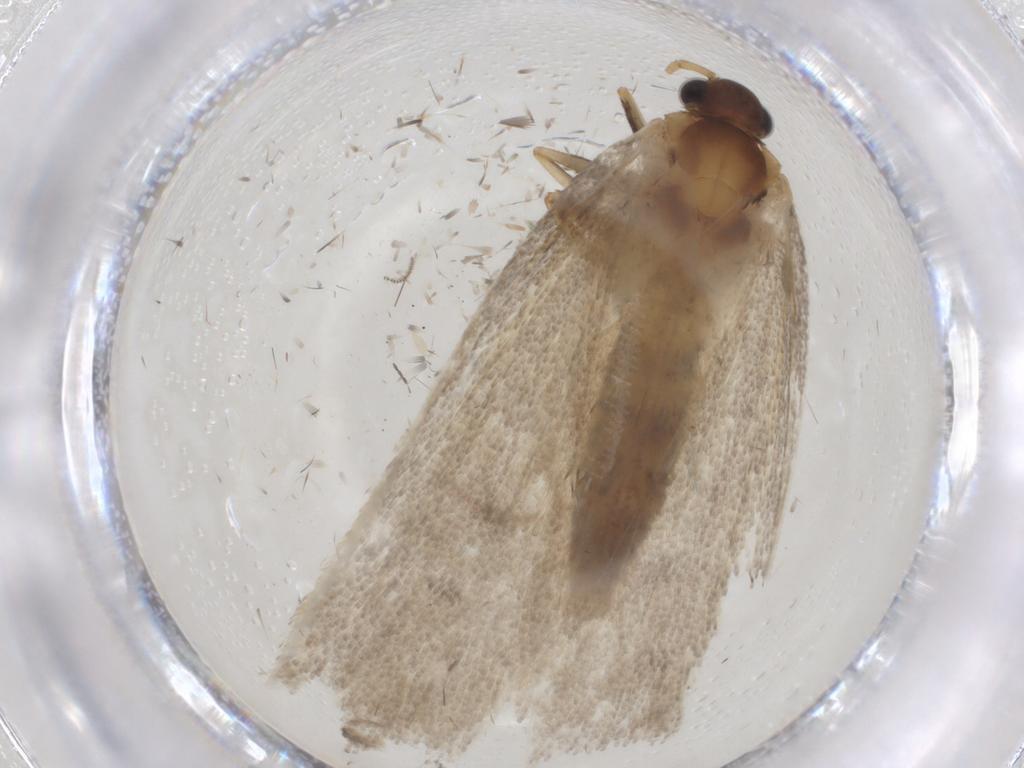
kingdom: Animalia
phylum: Arthropoda
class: Insecta
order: Lepidoptera
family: Depressariidae
